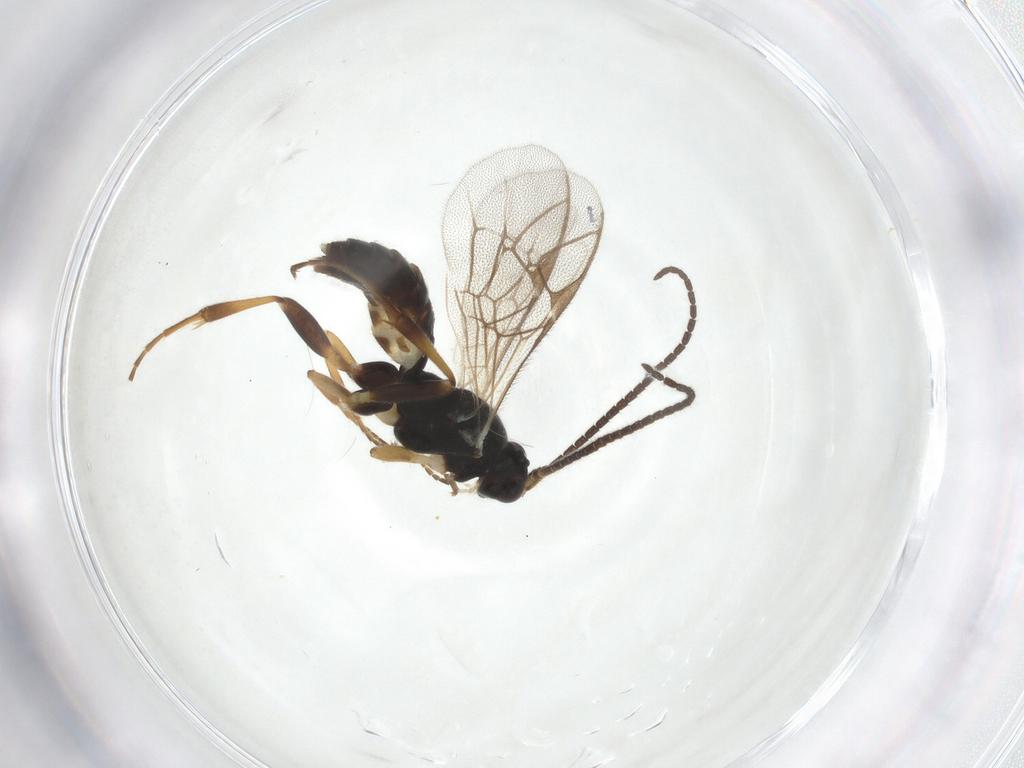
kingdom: Animalia
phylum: Arthropoda
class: Insecta
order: Hymenoptera
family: Ichneumonidae
